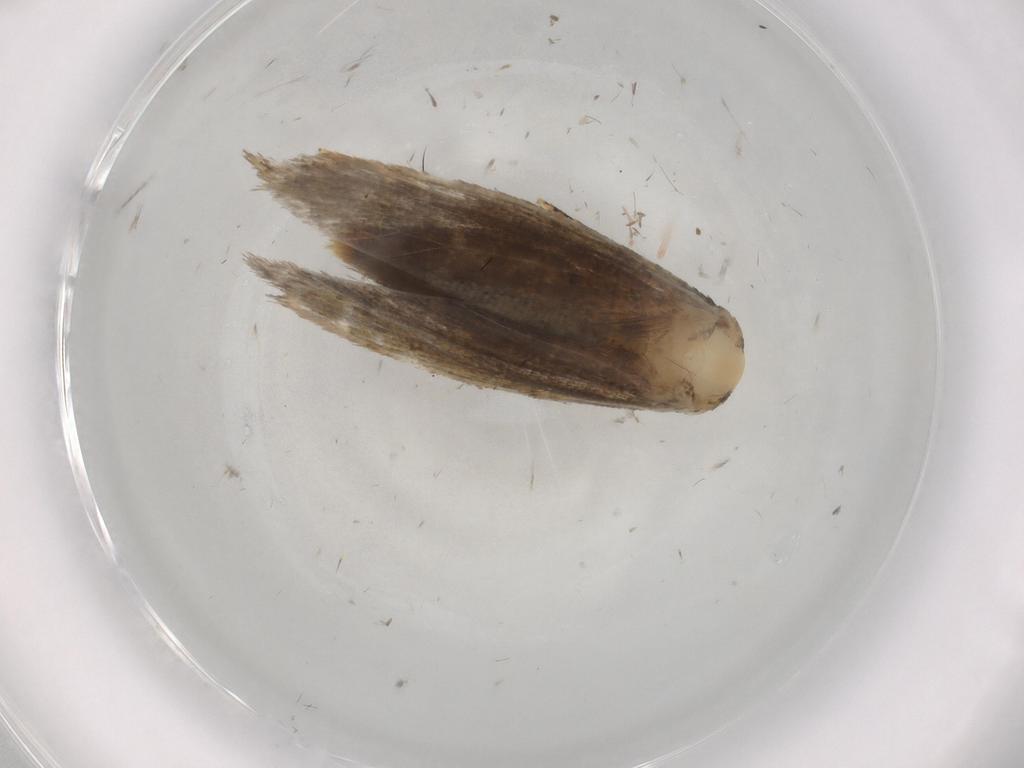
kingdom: Animalia
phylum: Arthropoda
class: Insecta
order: Lepidoptera
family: Tineidae
